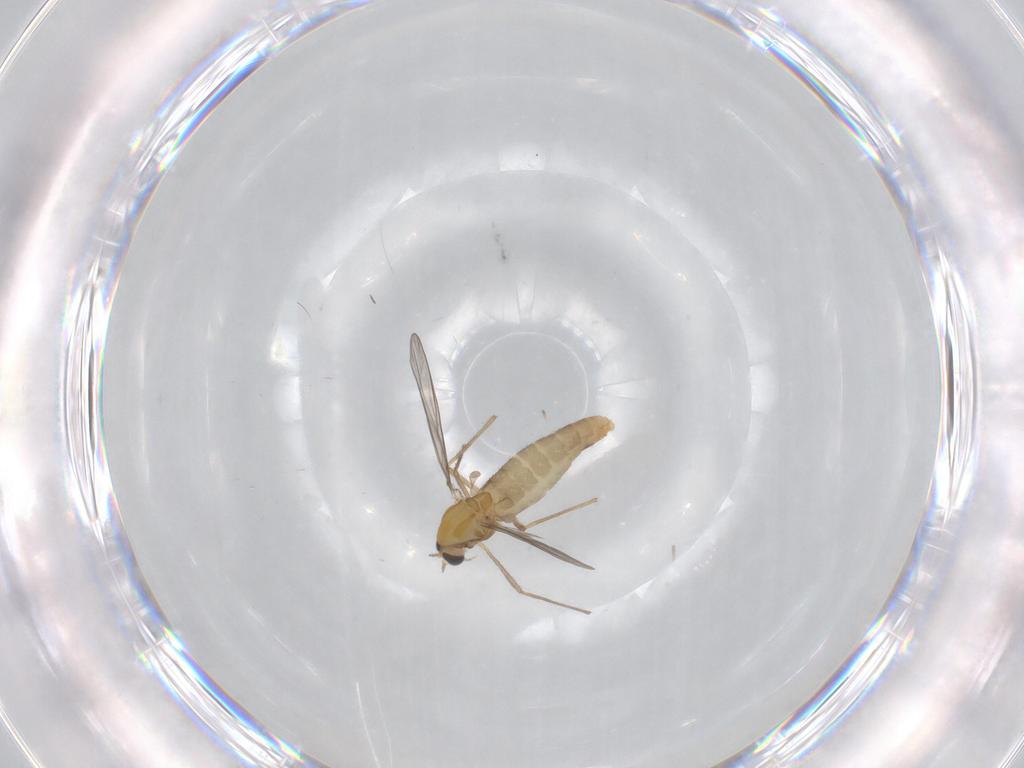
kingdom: Animalia
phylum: Arthropoda
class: Insecta
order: Diptera
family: Chironomidae
